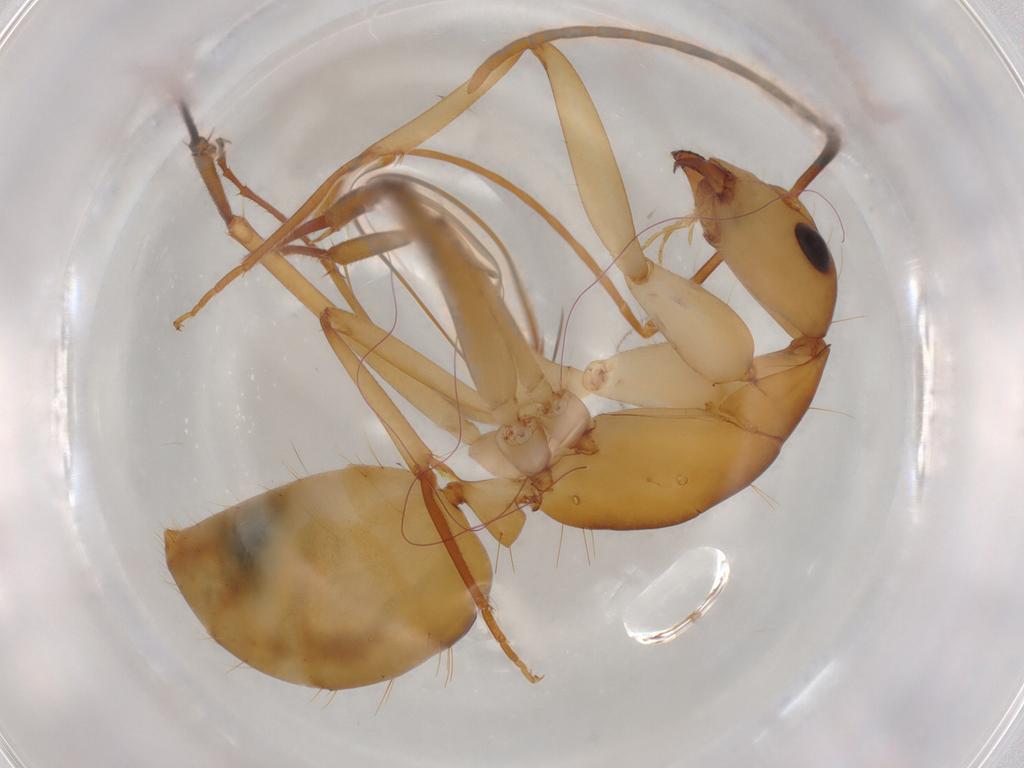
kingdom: Animalia
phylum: Arthropoda
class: Insecta
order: Hymenoptera
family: Formicidae
